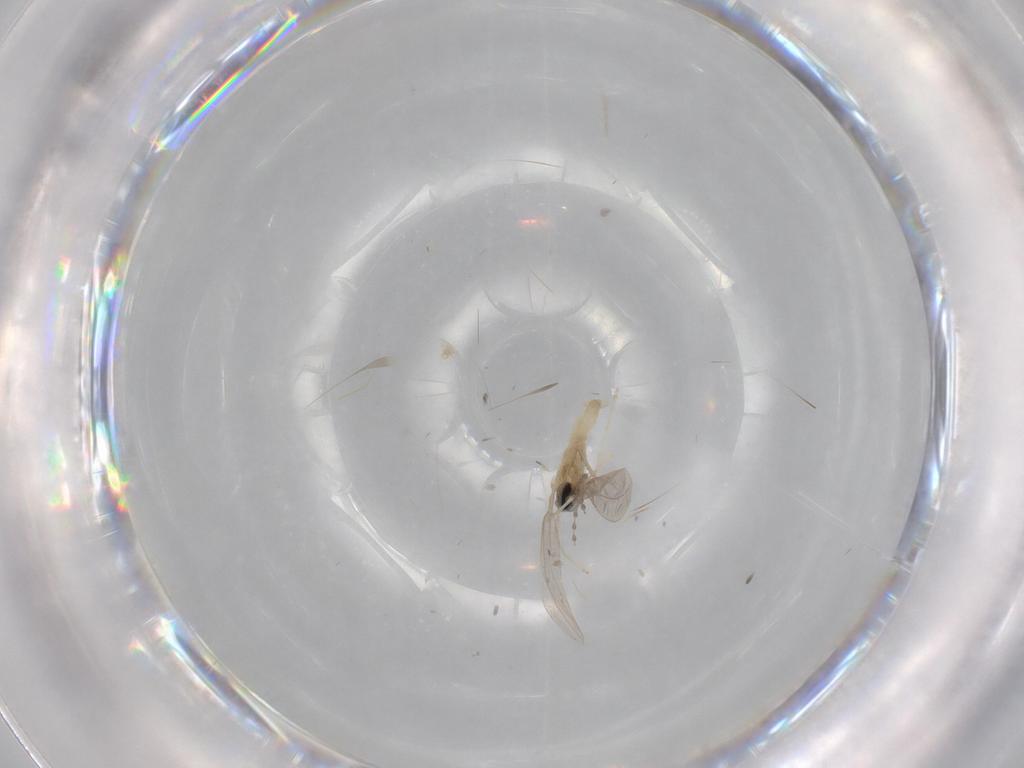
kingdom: Animalia
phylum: Arthropoda
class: Insecta
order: Diptera
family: Cecidomyiidae
